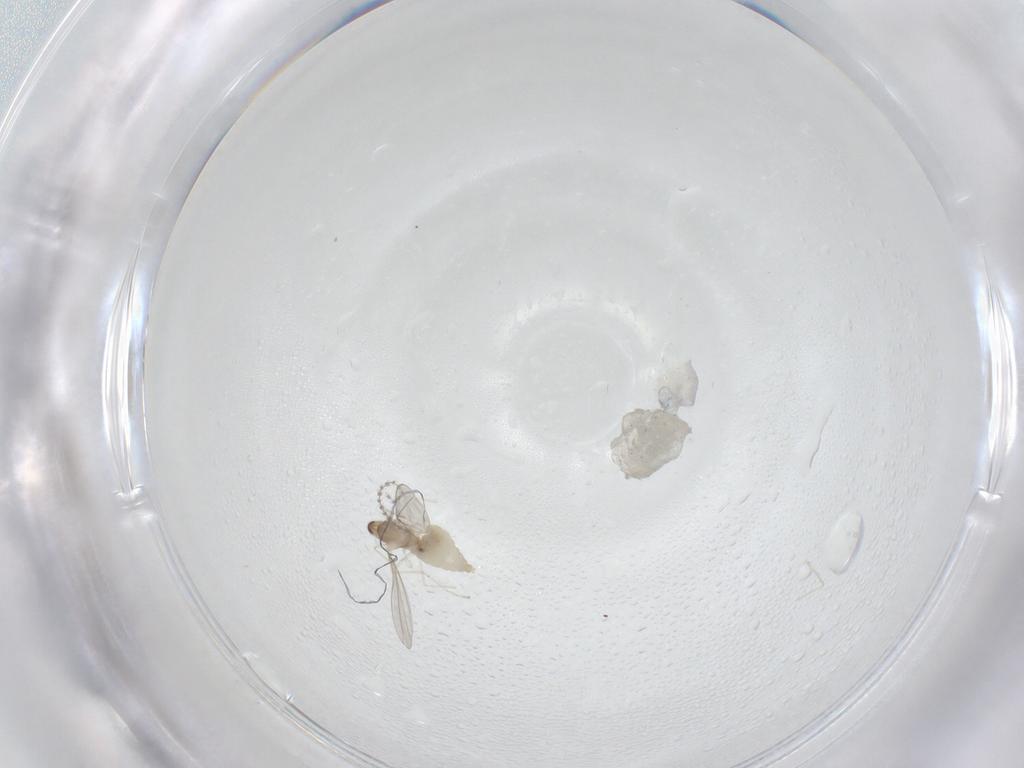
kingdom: Animalia
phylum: Arthropoda
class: Insecta
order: Diptera
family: Cecidomyiidae
